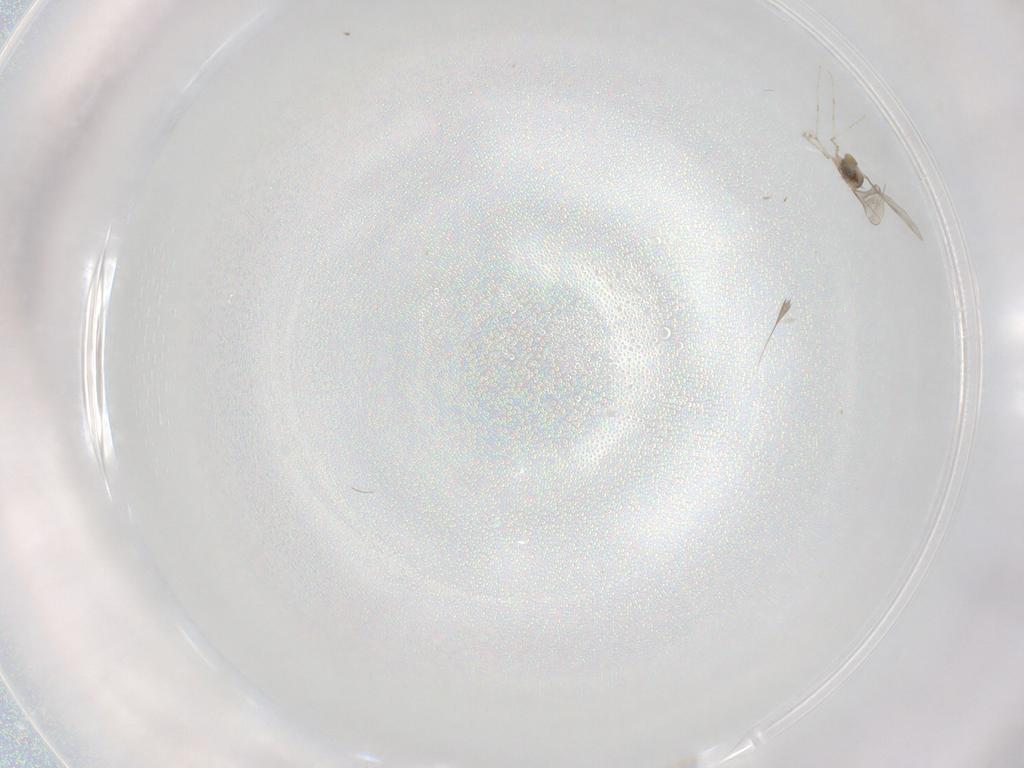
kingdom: Animalia
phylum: Arthropoda
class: Insecta
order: Diptera
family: Cecidomyiidae
